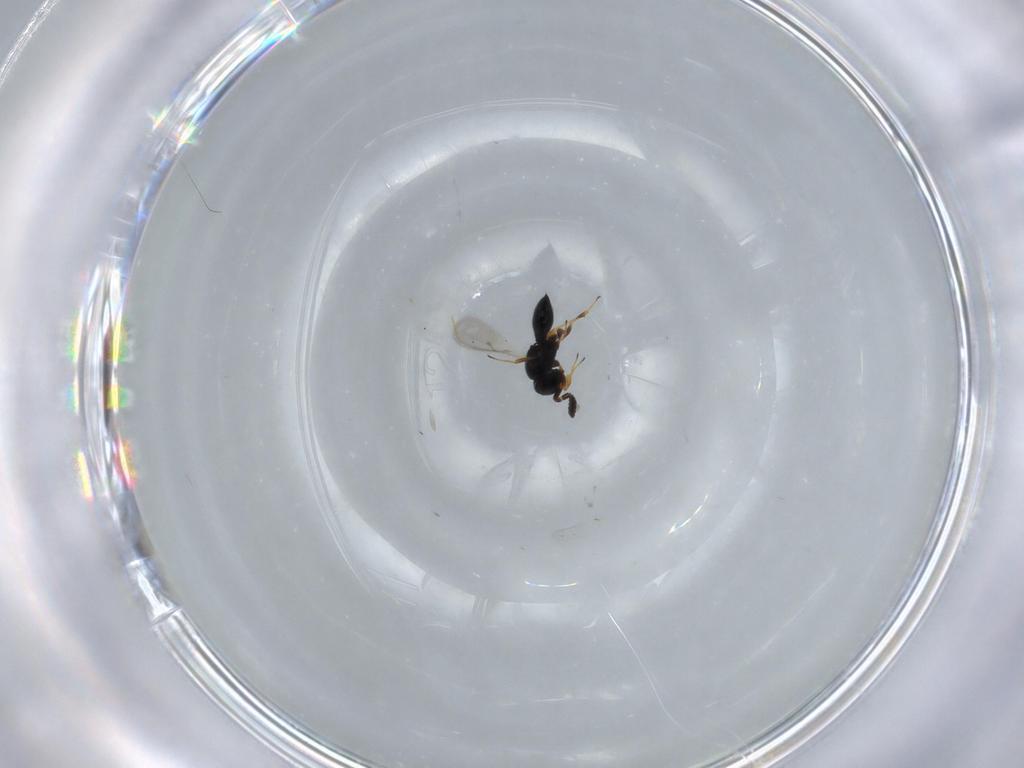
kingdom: Animalia
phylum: Arthropoda
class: Insecta
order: Hymenoptera
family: Scelionidae
